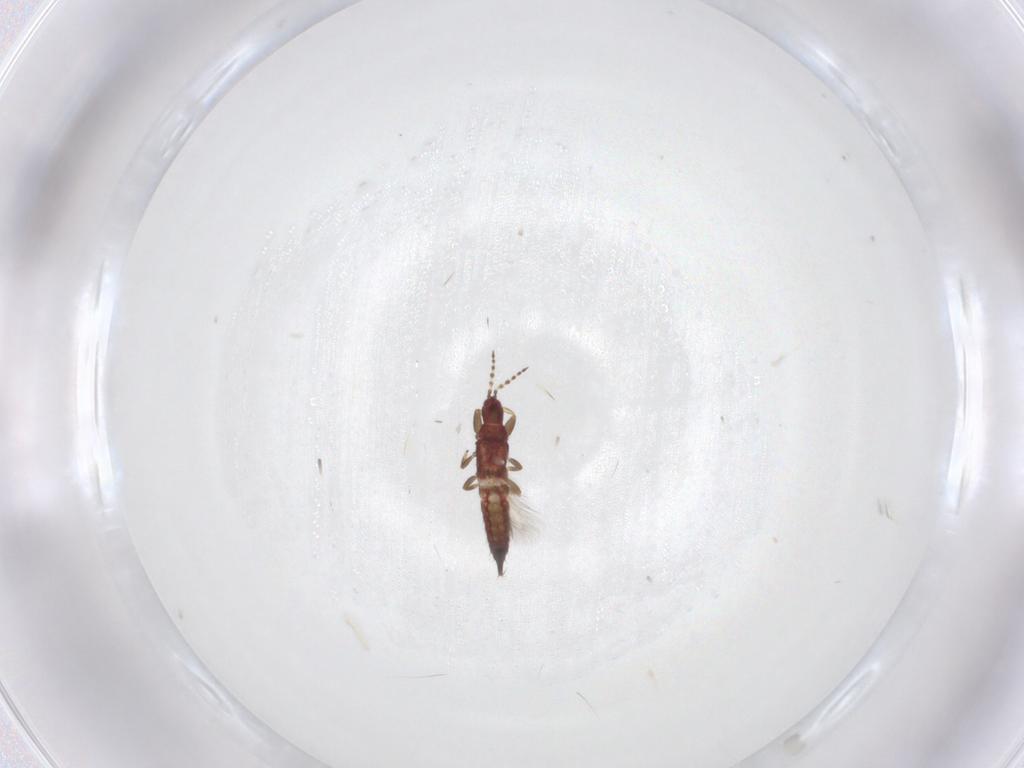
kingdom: Animalia
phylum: Arthropoda
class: Insecta
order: Thysanoptera
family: Phlaeothripidae
